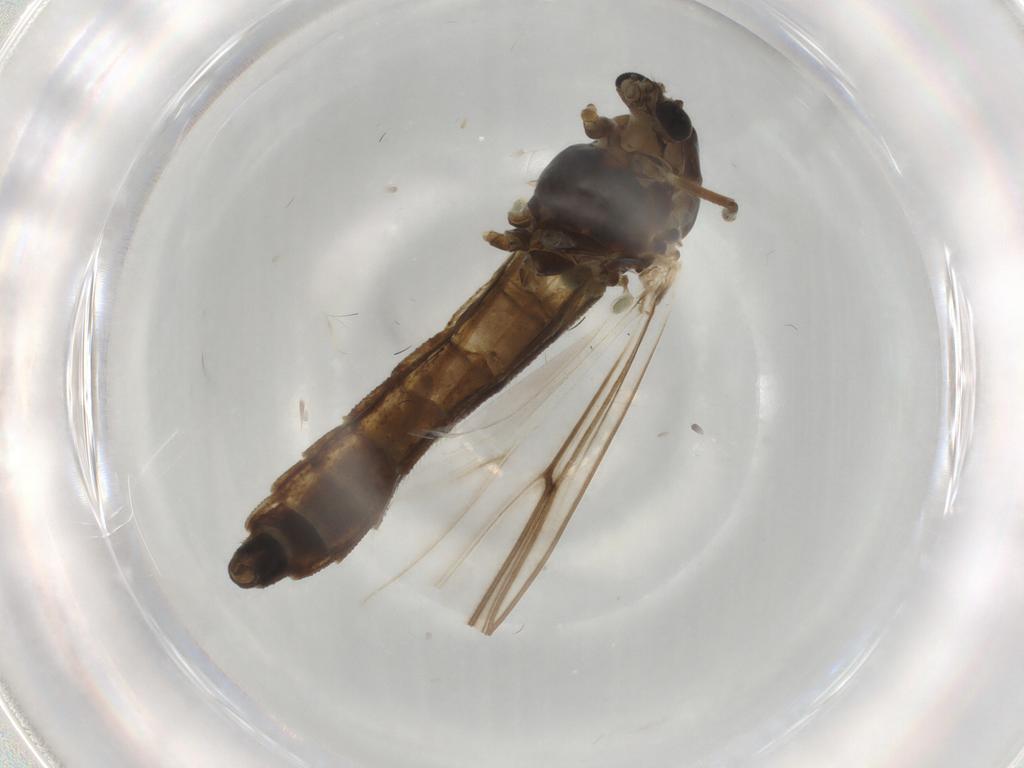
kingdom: Animalia
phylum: Arthropoda
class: Insecta
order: Diptera
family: Chironomidae
